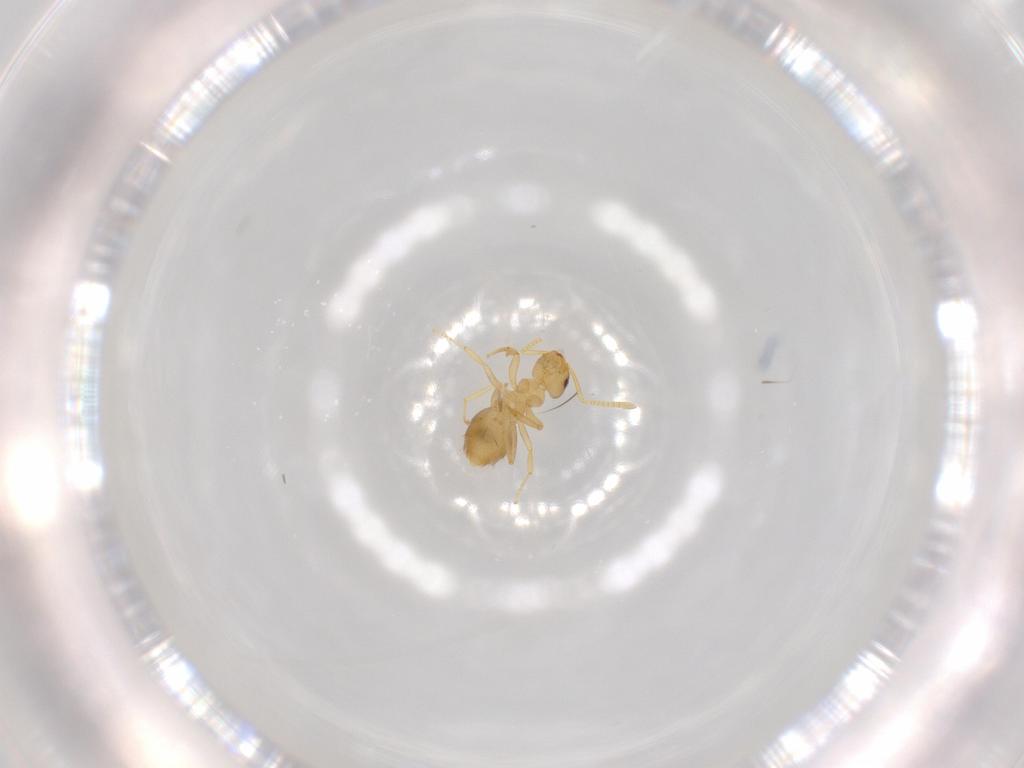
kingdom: Animalia
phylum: Arthropoda
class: Insecta
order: Hymenoptera
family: Formicidae
